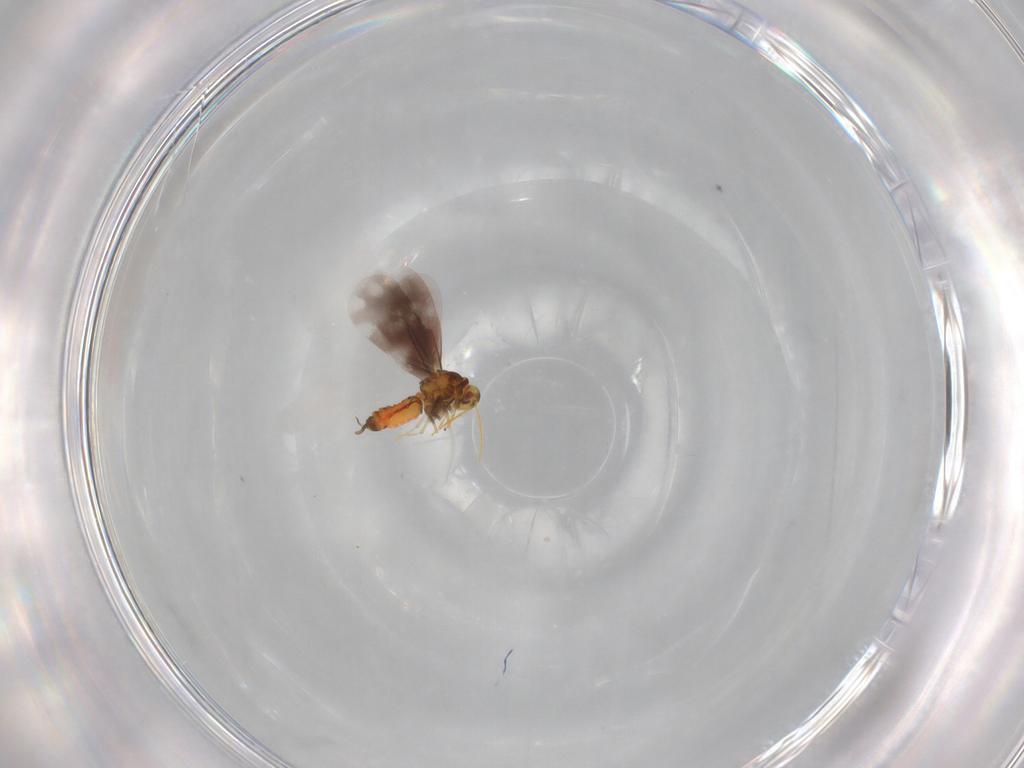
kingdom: Animalia
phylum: Arthropoda
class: Insecta
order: Hemiptera
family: Aleyrodidae
